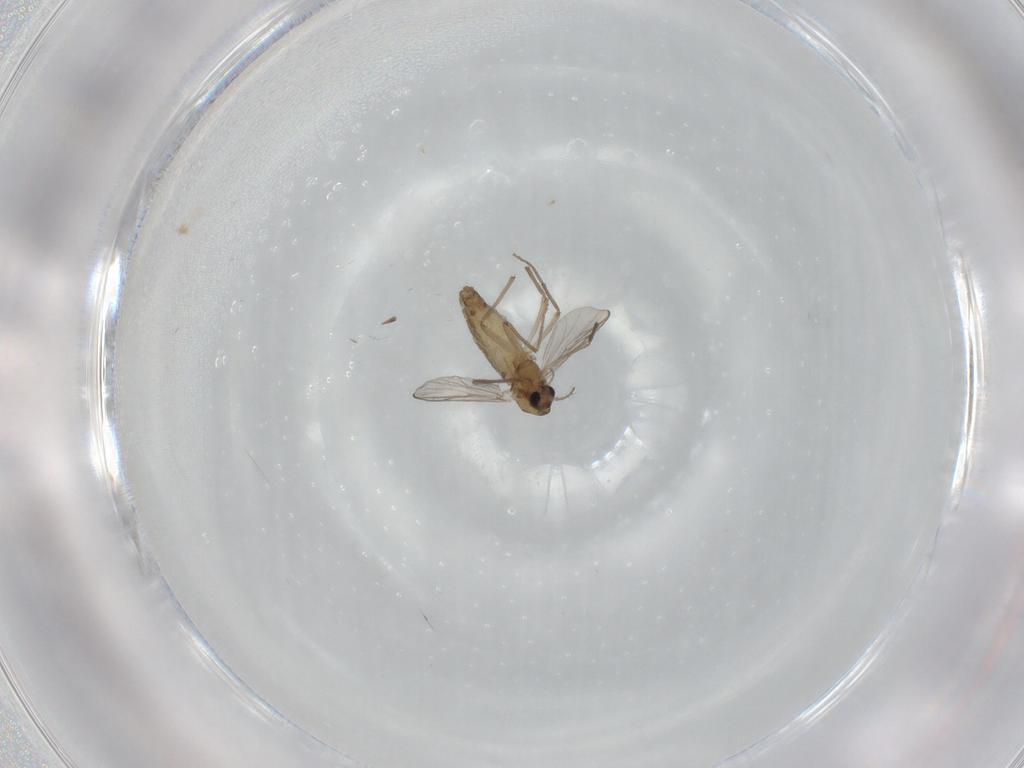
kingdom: Animalia
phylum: Arthropoda
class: Insecta
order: Diptera
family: Chironomidae
